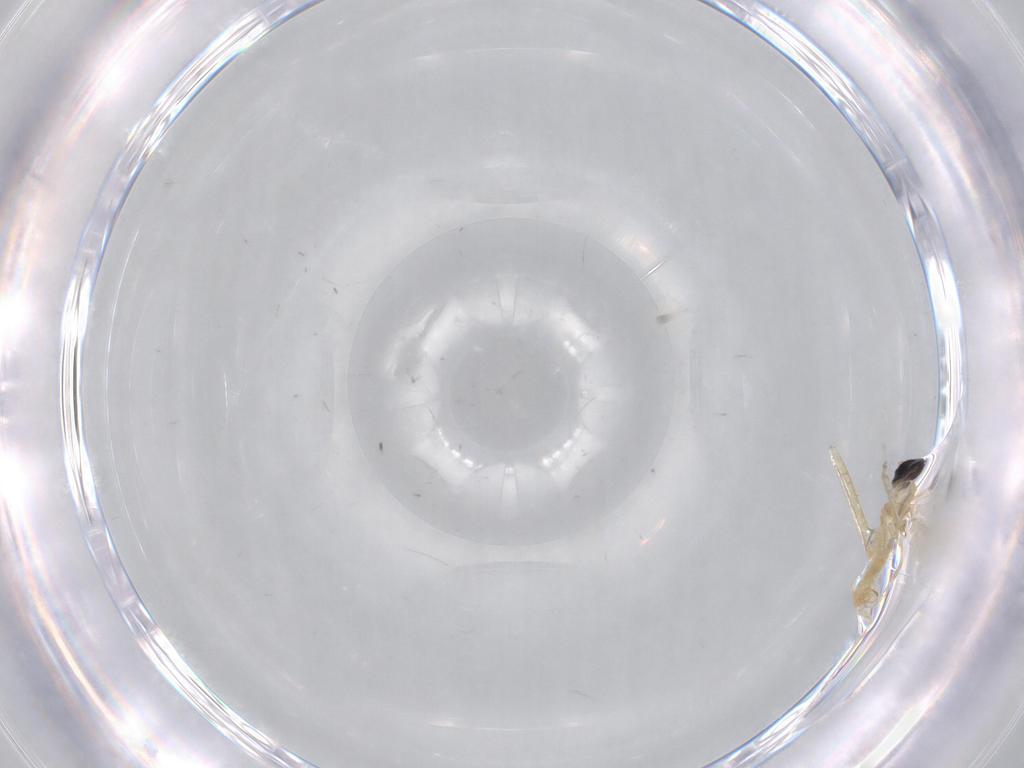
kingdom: Animalia
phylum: Arthropoda
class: Insecta
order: Diptera
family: Cecidomyiidae
